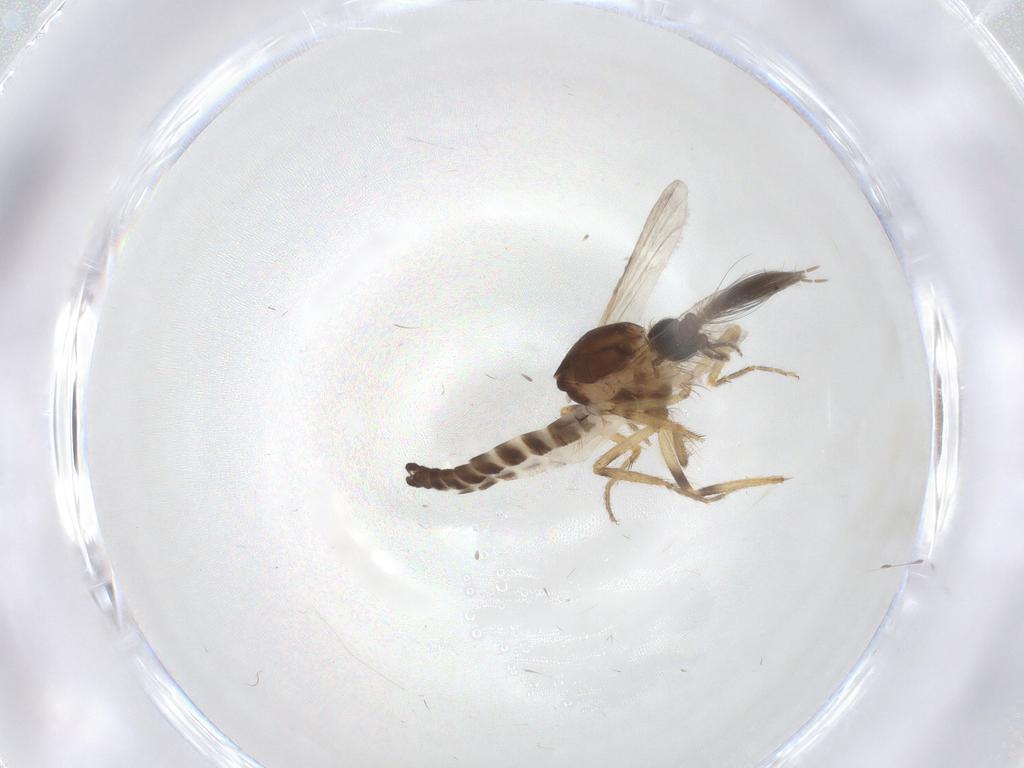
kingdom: Animalia
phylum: Arthropoda
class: Insecta
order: Diptera
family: Ceratopogonidae
